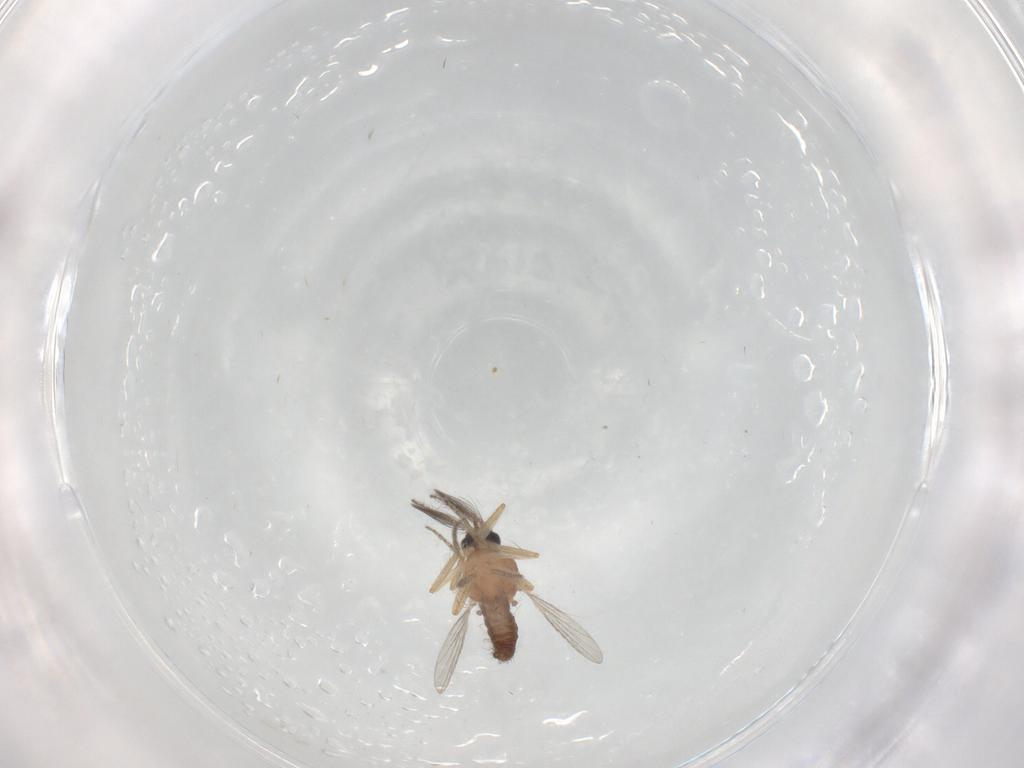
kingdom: Animalia
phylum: Arthropoda
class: Insecta
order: Diptera
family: Ceratopogonidae
